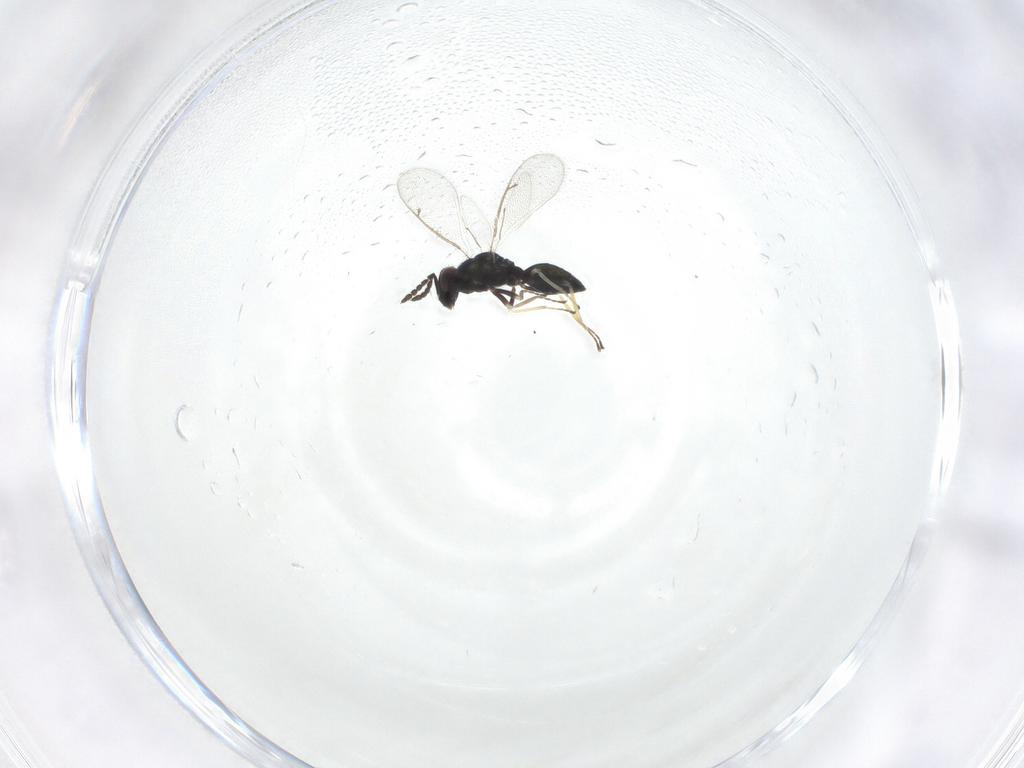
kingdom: Animalia
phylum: Arthropoda
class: Insecta
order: Hymenoptera
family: Eulophidae
